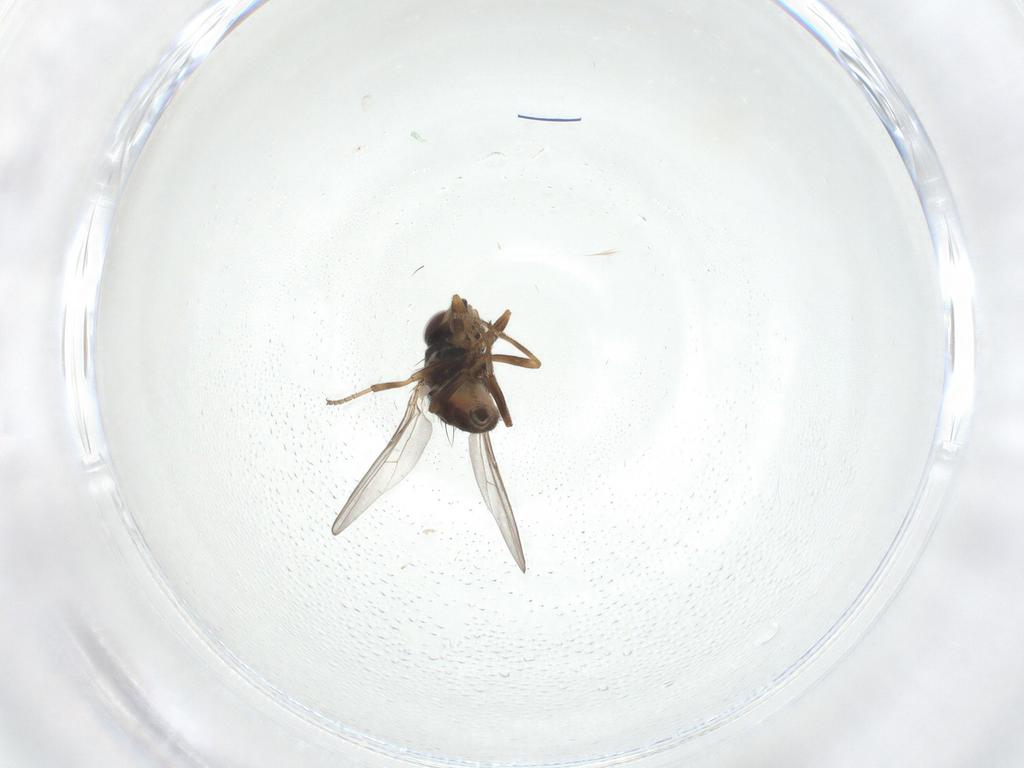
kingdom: Animalia
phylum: Arthropoda
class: Insecta
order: Diptera
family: Chloropidae
